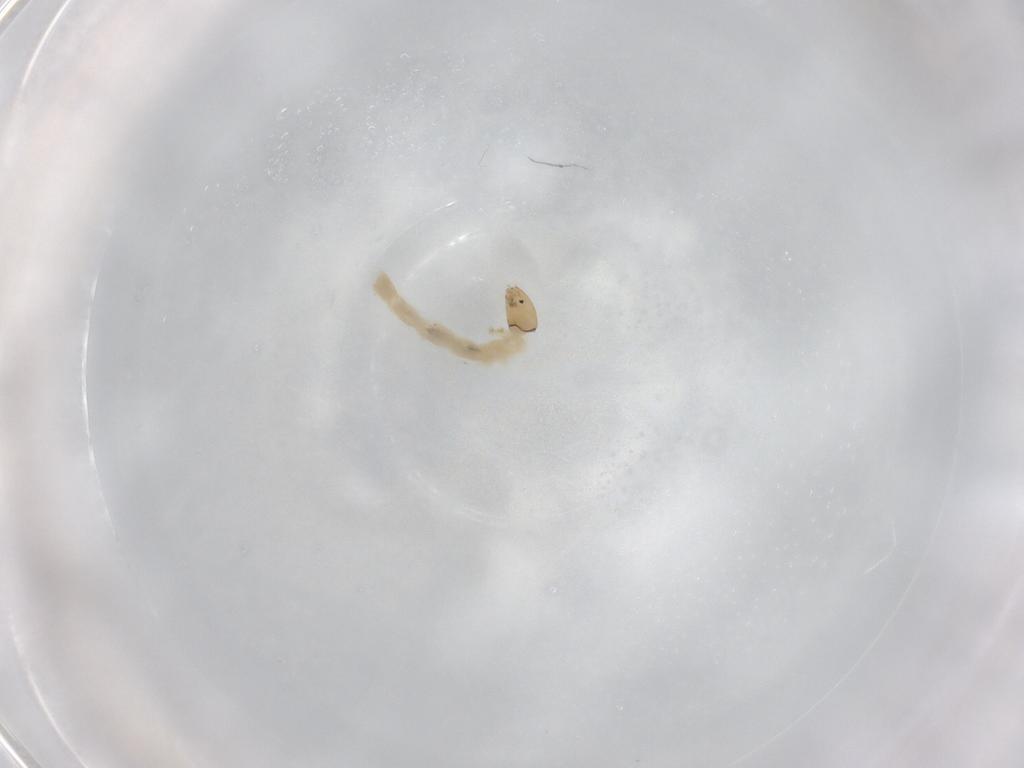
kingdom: Animalia
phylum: Arthropoda
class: Insecta
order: Diptera
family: Chironomidae
